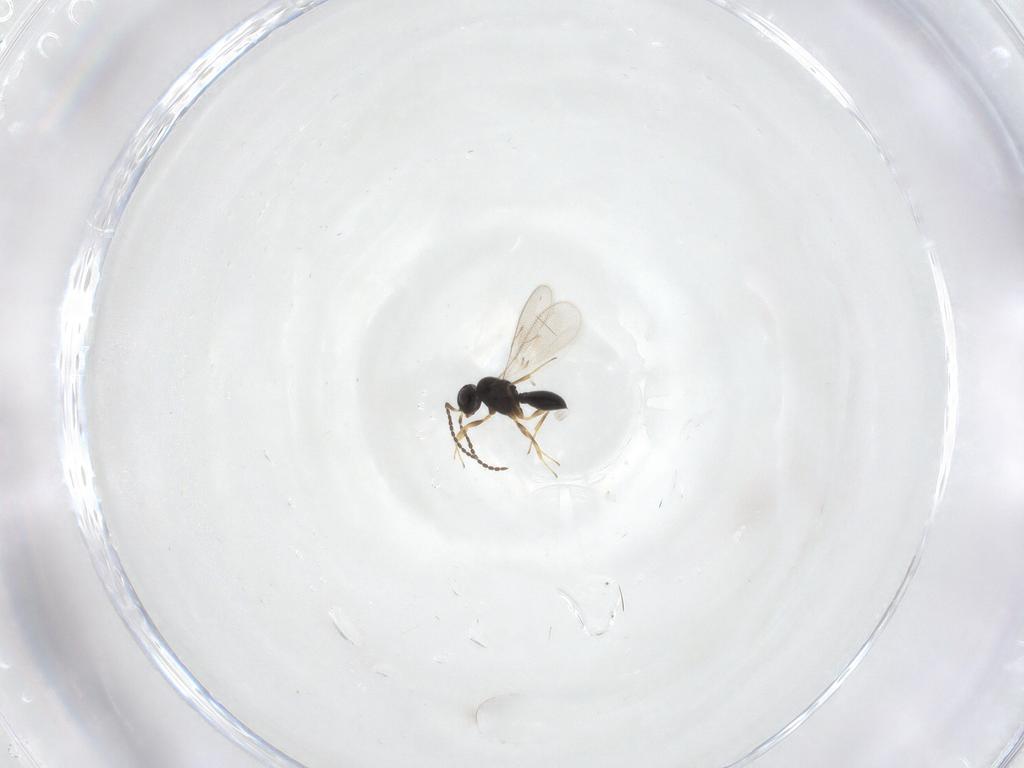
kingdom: Animalia
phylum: Arthropoda
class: Insecta
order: Hymenoptera
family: Scelionidae
